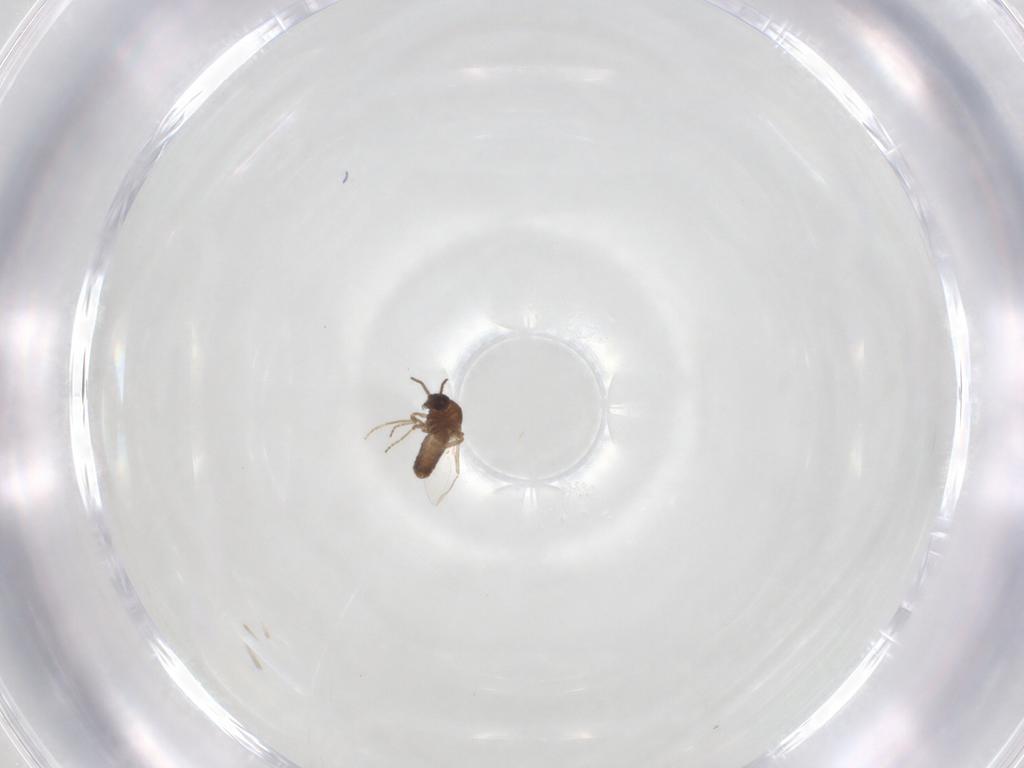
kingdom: Animalia
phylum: Arthropoda
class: Insecta
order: Diptera
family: Ceratopogonidae
